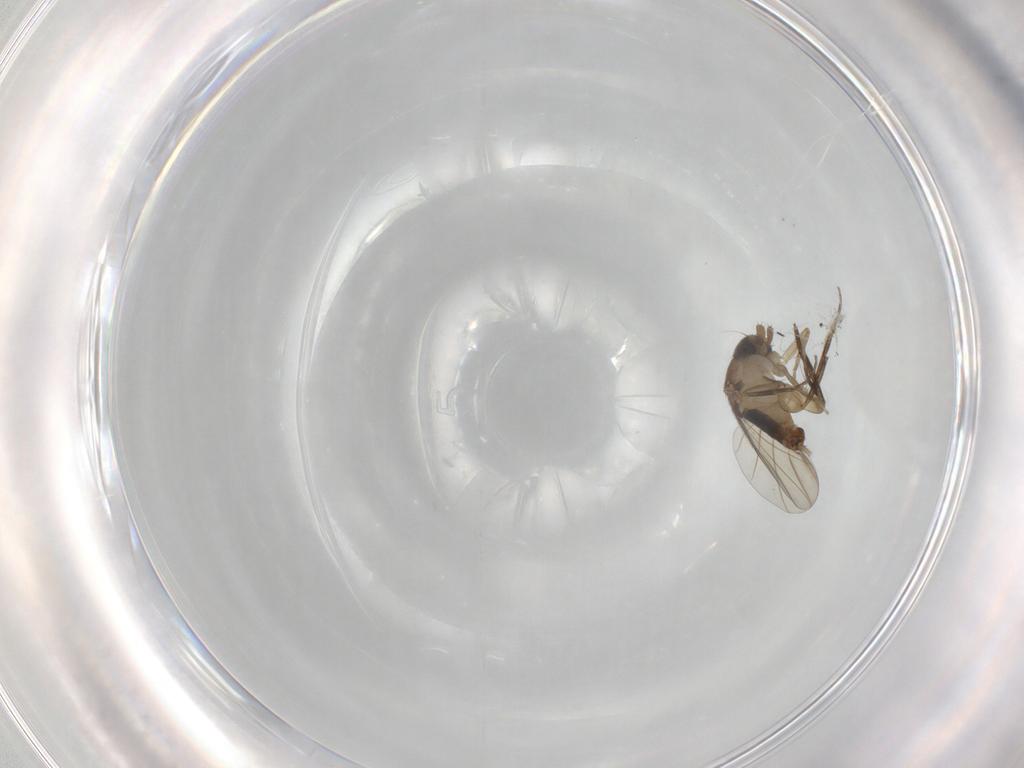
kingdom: Animalia
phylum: Arthropoda
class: Insecta
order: Diptera
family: Phoridae
